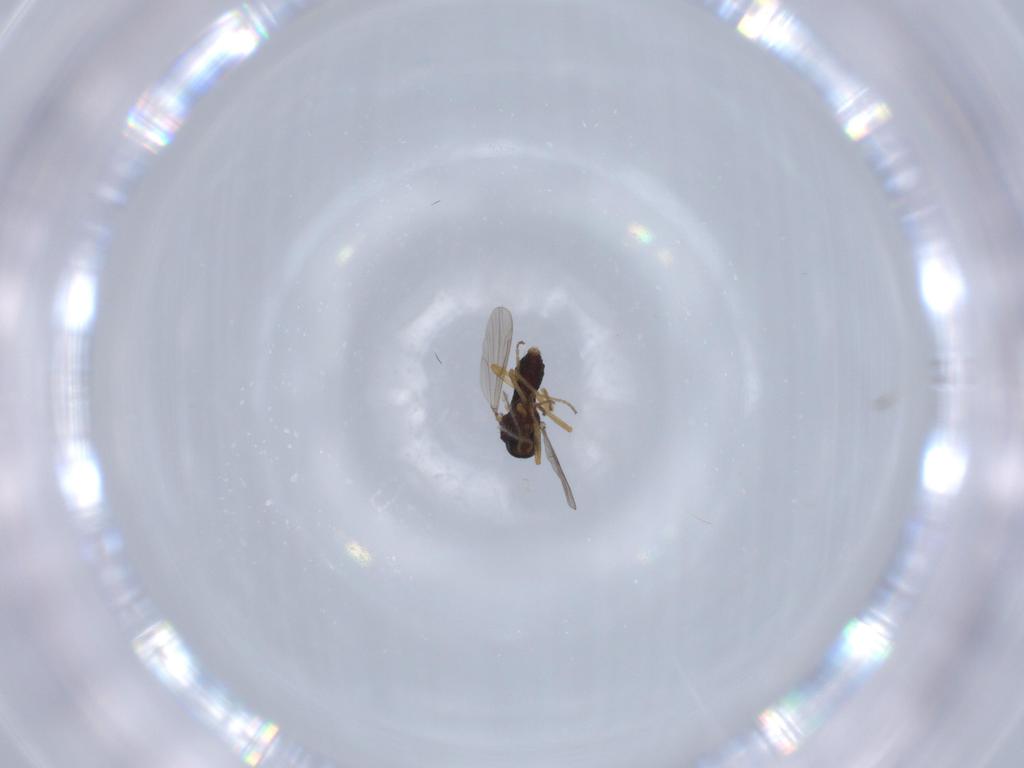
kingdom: Animalia
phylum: Arthropoda
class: Insecta
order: Diptera
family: Ceratopogonidae
